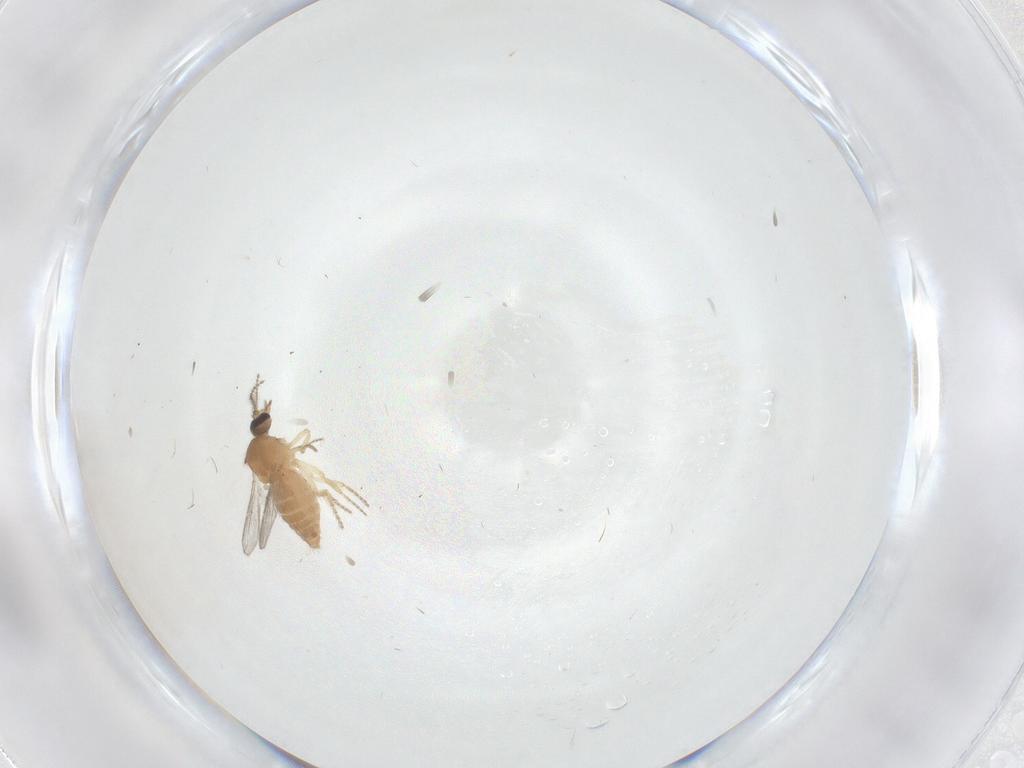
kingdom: Animalia
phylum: Arthropoda
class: Insecta
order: Diptera
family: Ceratopogonidae
